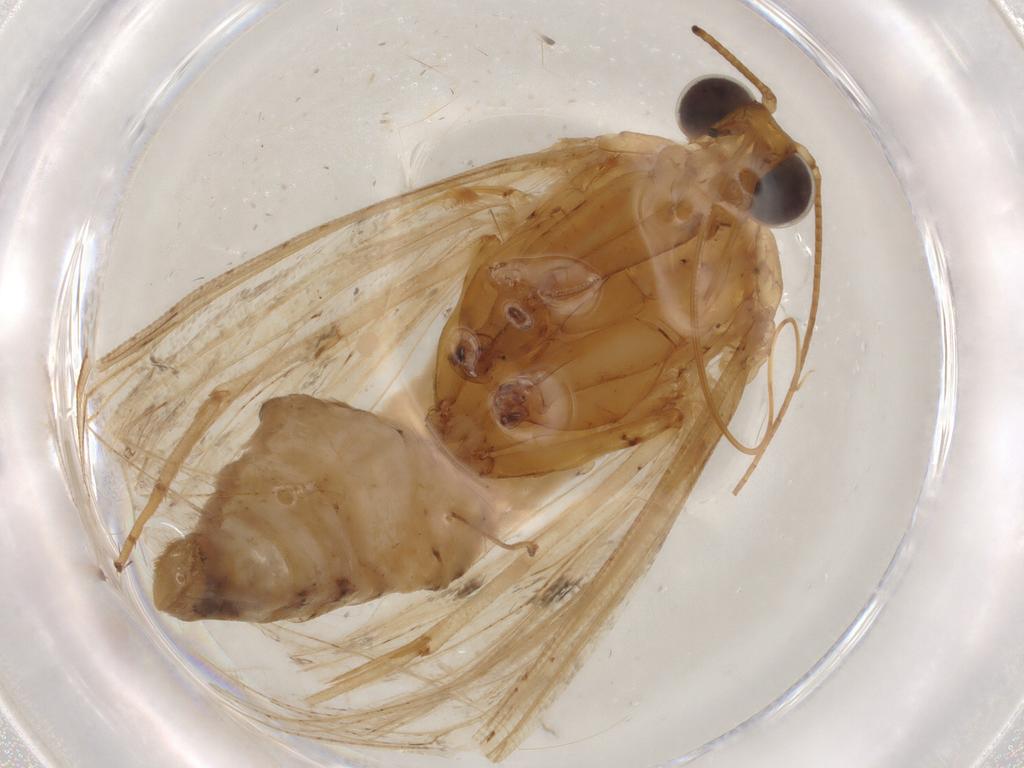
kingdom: Animalia
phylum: Arthropoda
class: Insecta
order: Lepidoptera
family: Crambidae
